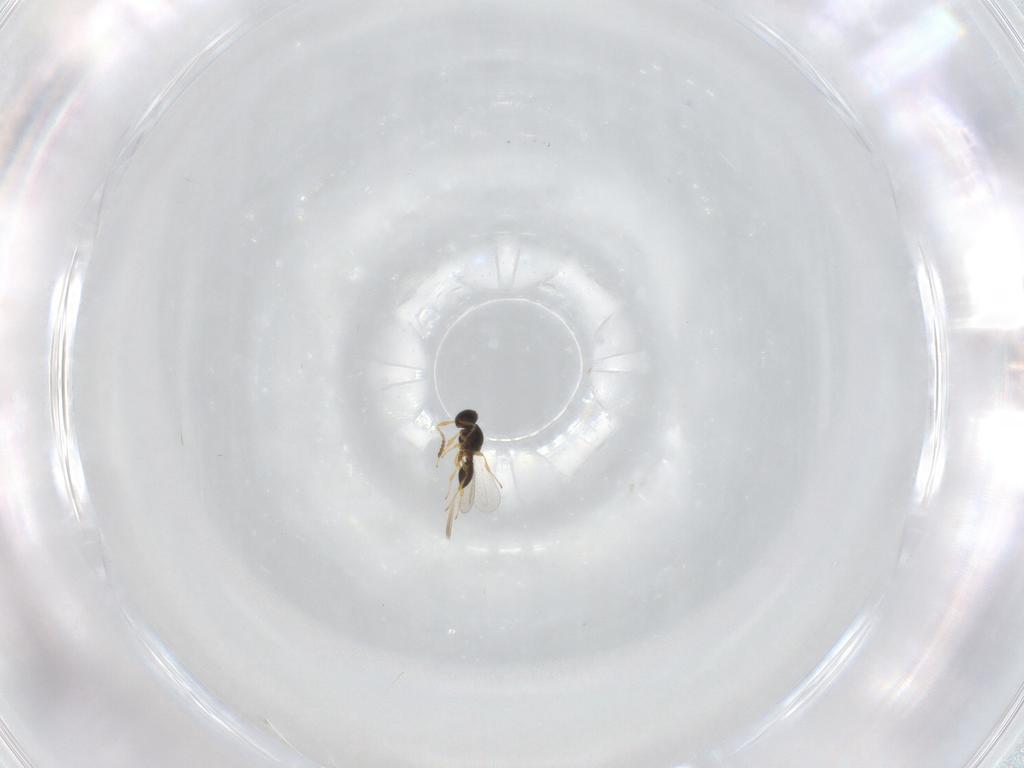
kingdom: Animalia
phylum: Arthropoda
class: Insecta
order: Hymenoptera
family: Platygastridae
